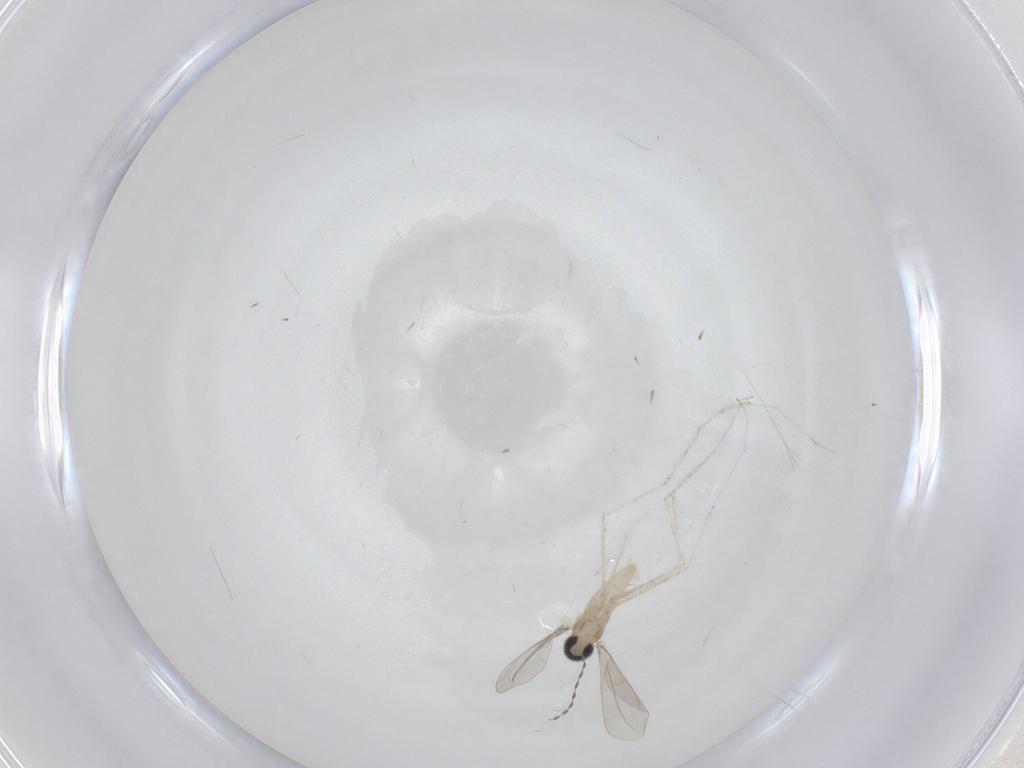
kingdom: Animalia
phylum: Arthropoda
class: Insecta
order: Diptera
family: Cecidomyiidae
